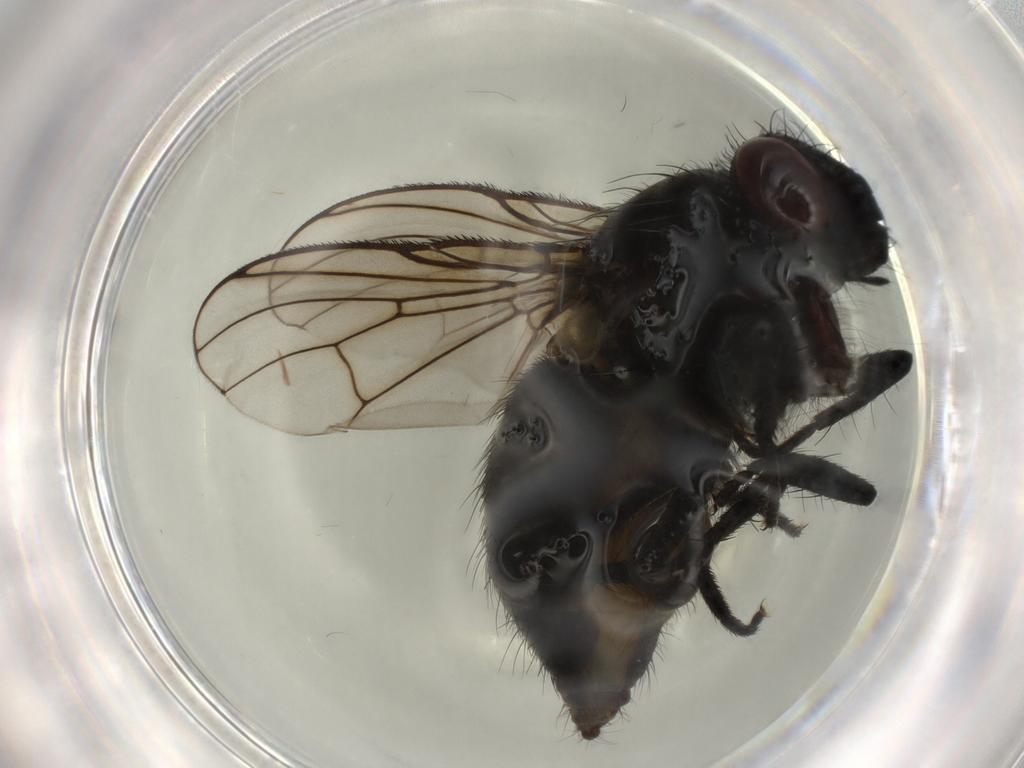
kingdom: Animalia
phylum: Arthropoda
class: Insecta
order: Diptera
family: Muscidae
